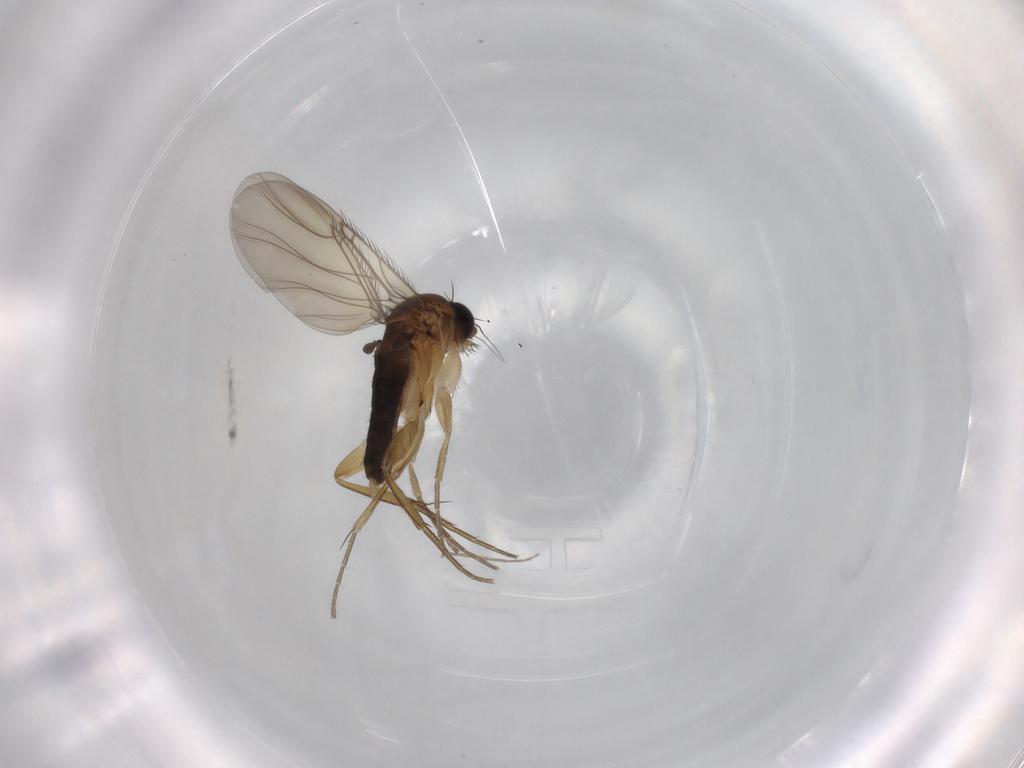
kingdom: Animalia
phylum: Arthropoda
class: Insecta
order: Diptera
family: Phoridae
